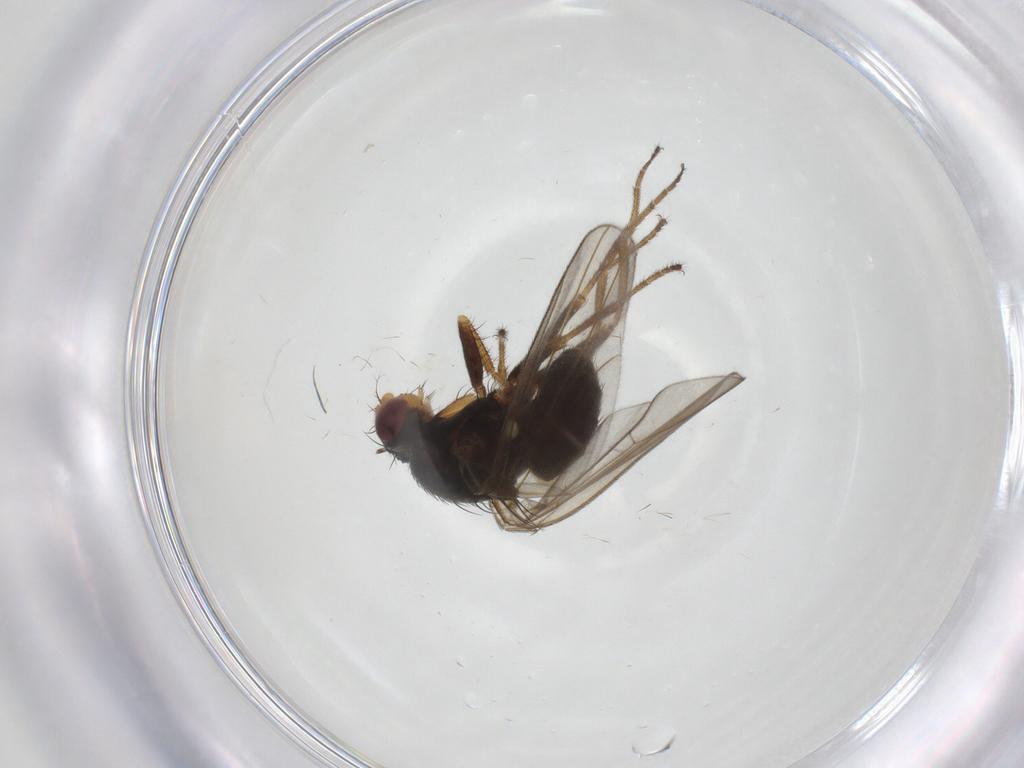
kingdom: Animalia
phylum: Arthropoda
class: Insecta
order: Diptera
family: Drosophilidae
